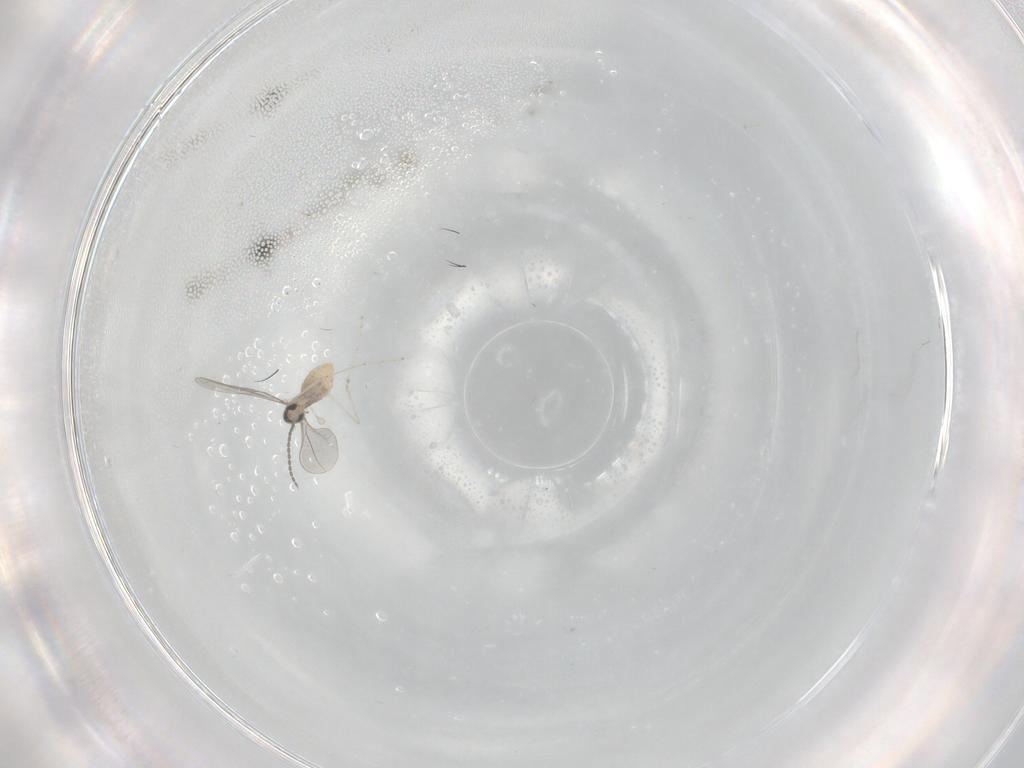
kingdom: Animalia
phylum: Arthropoda
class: Insecta
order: Diptera
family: Cecidomyiidae
